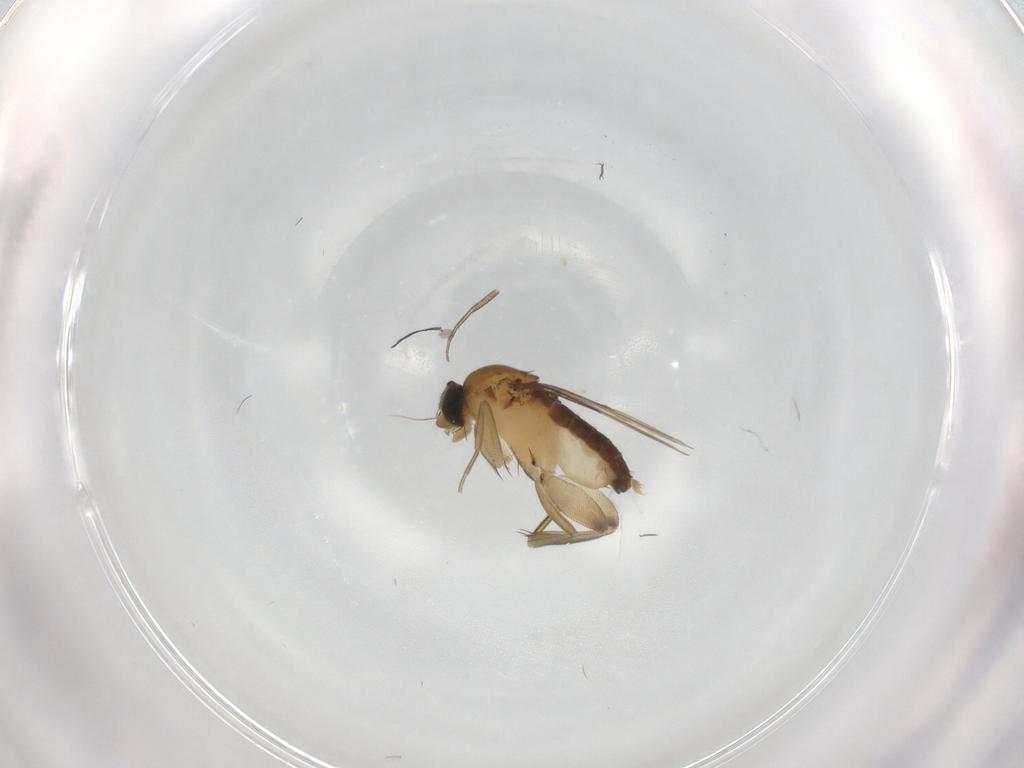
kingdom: Animalia
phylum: Arthropoda
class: Insecta
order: Diptera
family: Phoridae
